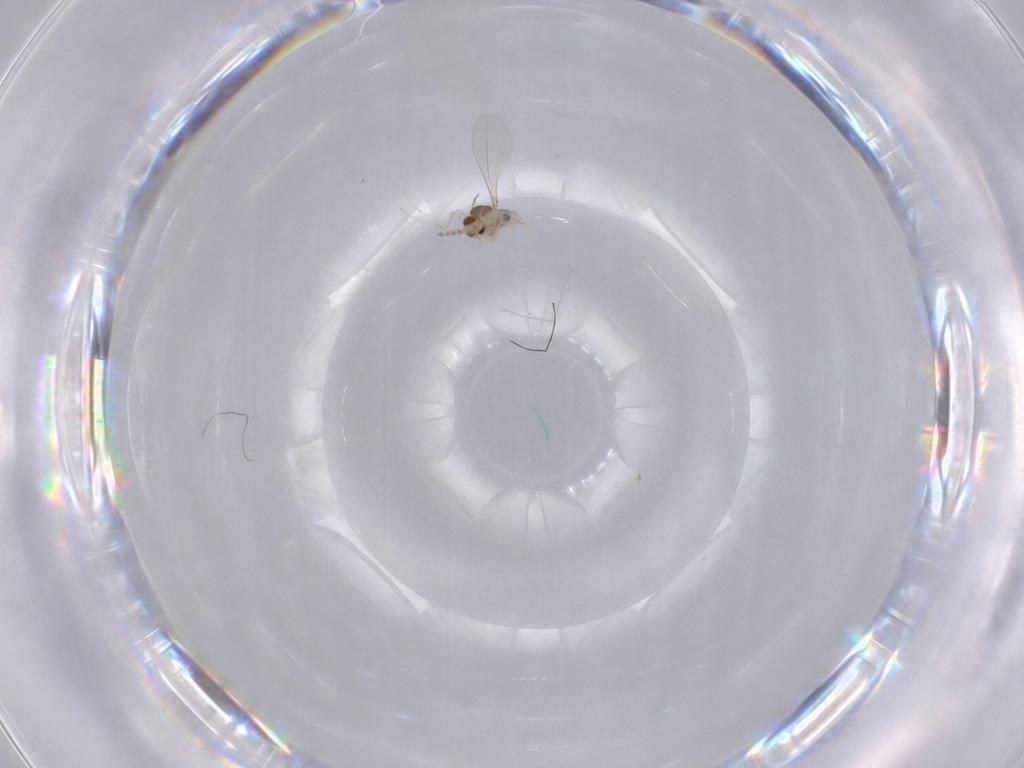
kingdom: Animalia
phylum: Arthropoda
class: Insecta
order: Diptera
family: Cecidomyiidae
